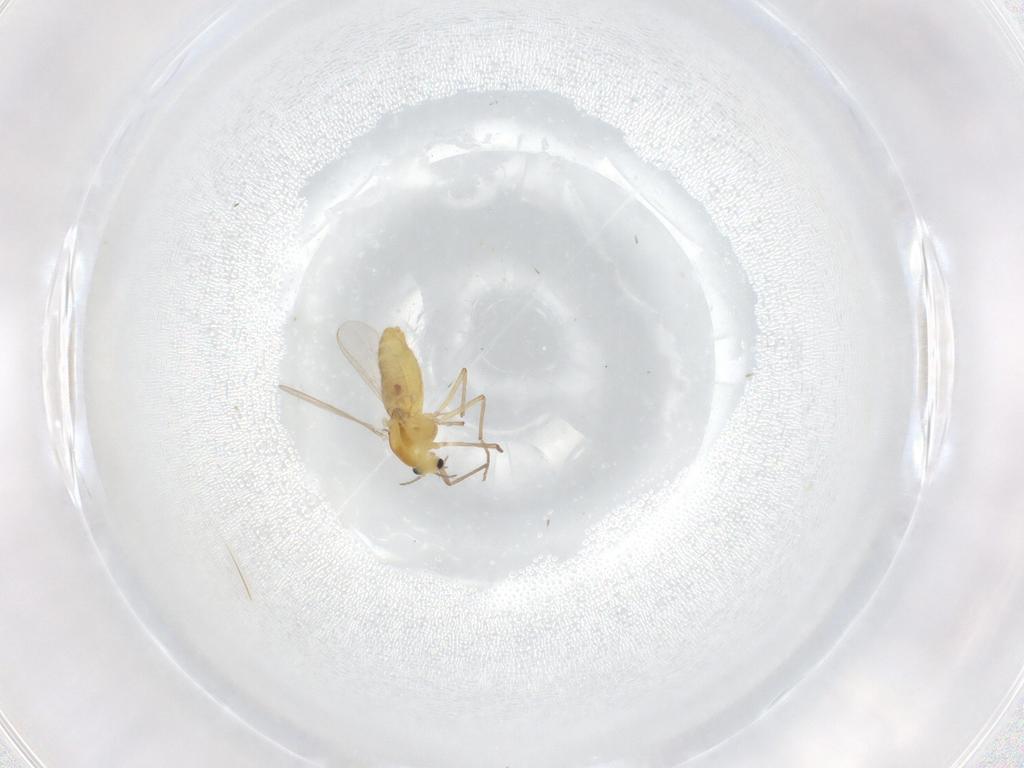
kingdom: Animalia
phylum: Arthropoda
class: Insecta
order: Diptera
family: Chironomidae
